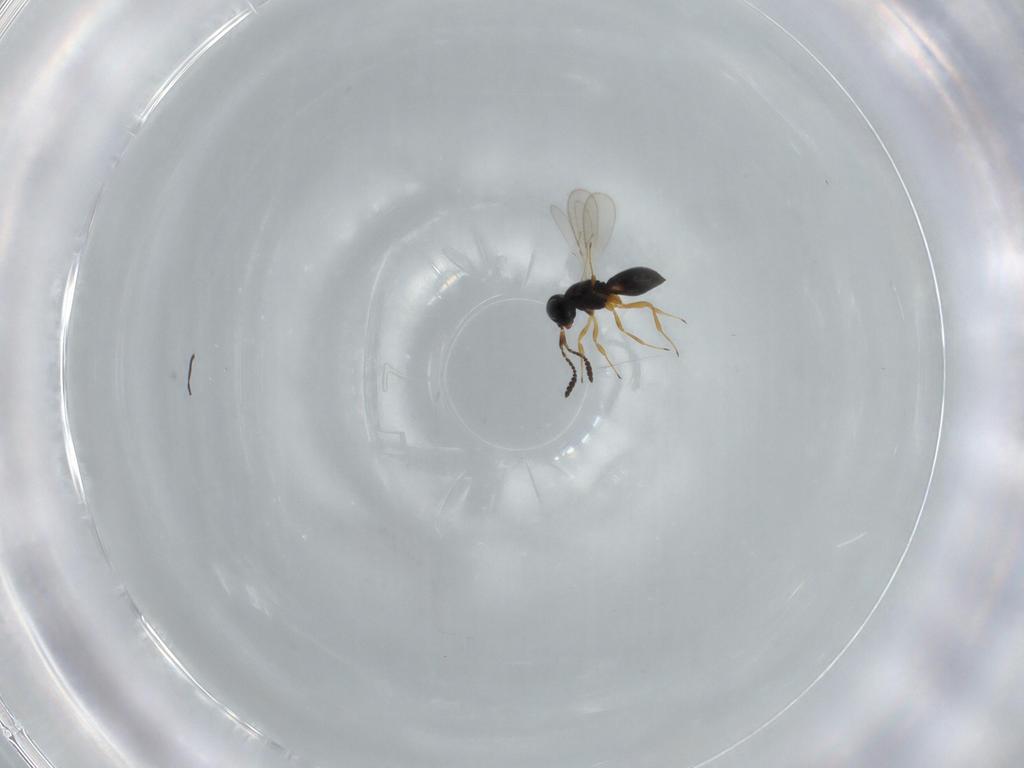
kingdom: Animalia
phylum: Arthropoda
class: Insecta
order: Hymenoptera
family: Scelionidae
